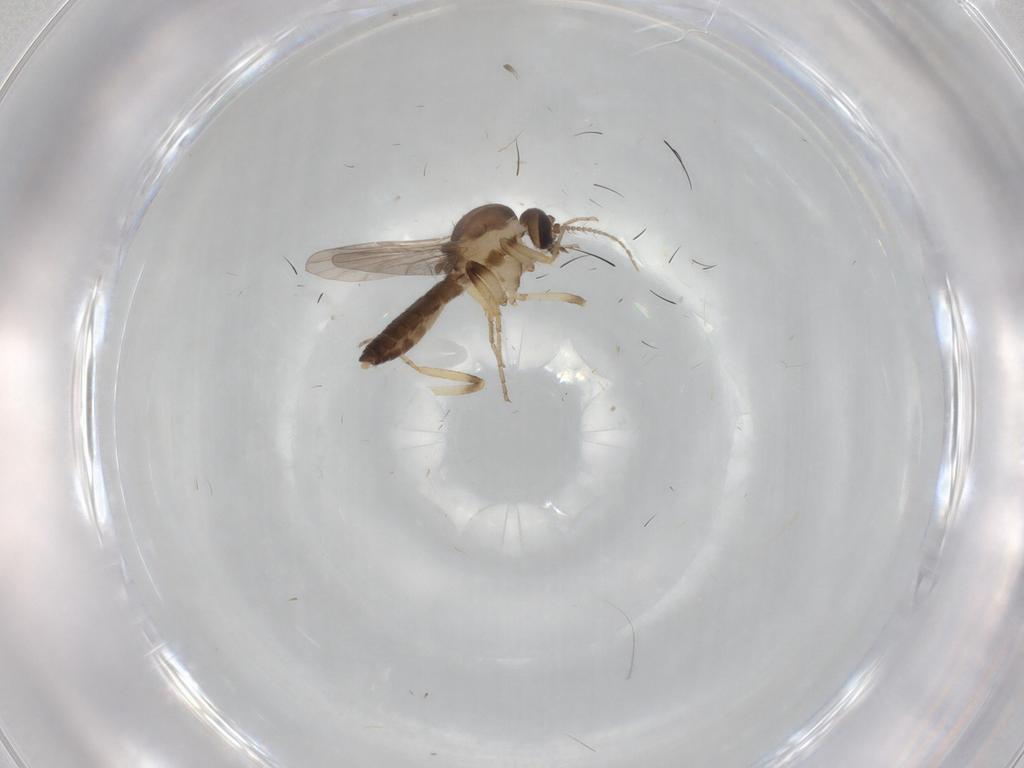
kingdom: Animalia
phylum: Arthropoda
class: Insecta
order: Diptera
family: Ceratopogonidae
